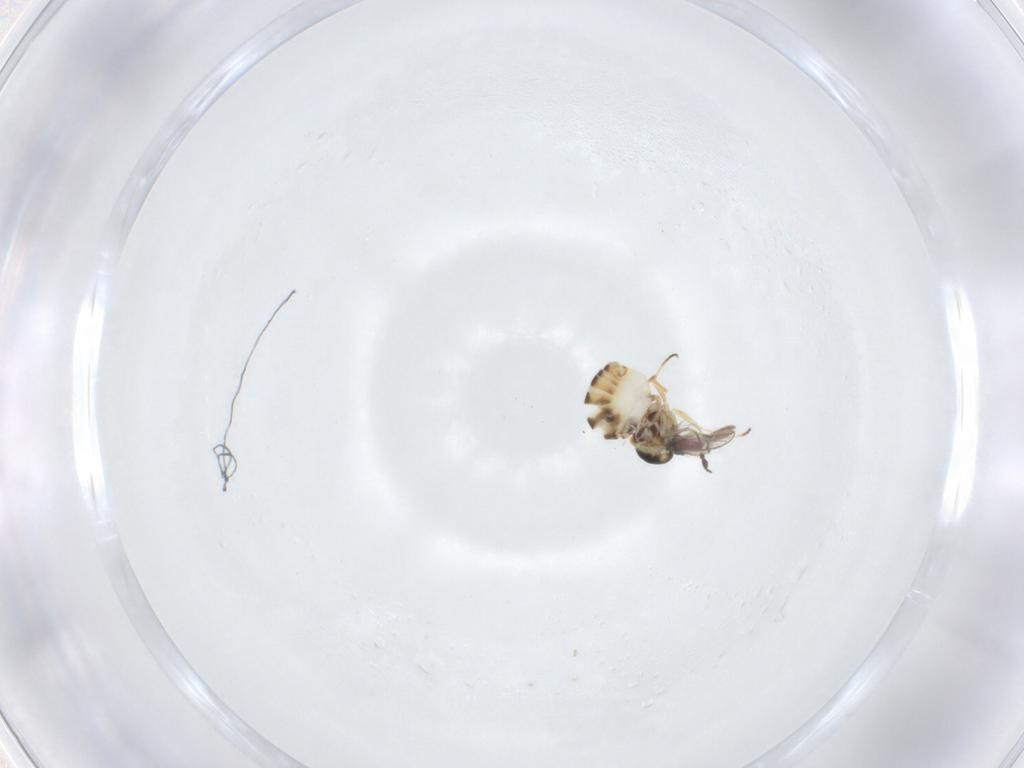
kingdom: Animalia
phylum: Arthropoda
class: Insecta
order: Diptera
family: Mythicomyiidae
